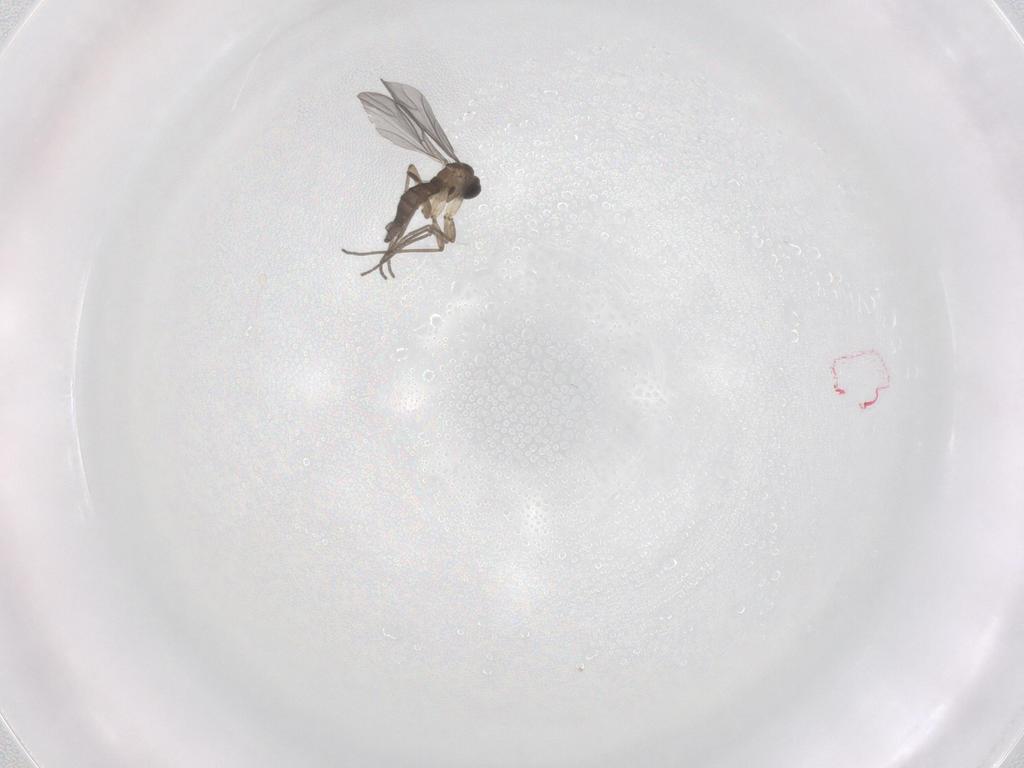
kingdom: Animalia
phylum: Arthropoda
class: Insecta
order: Diptera
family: Sciaridae
